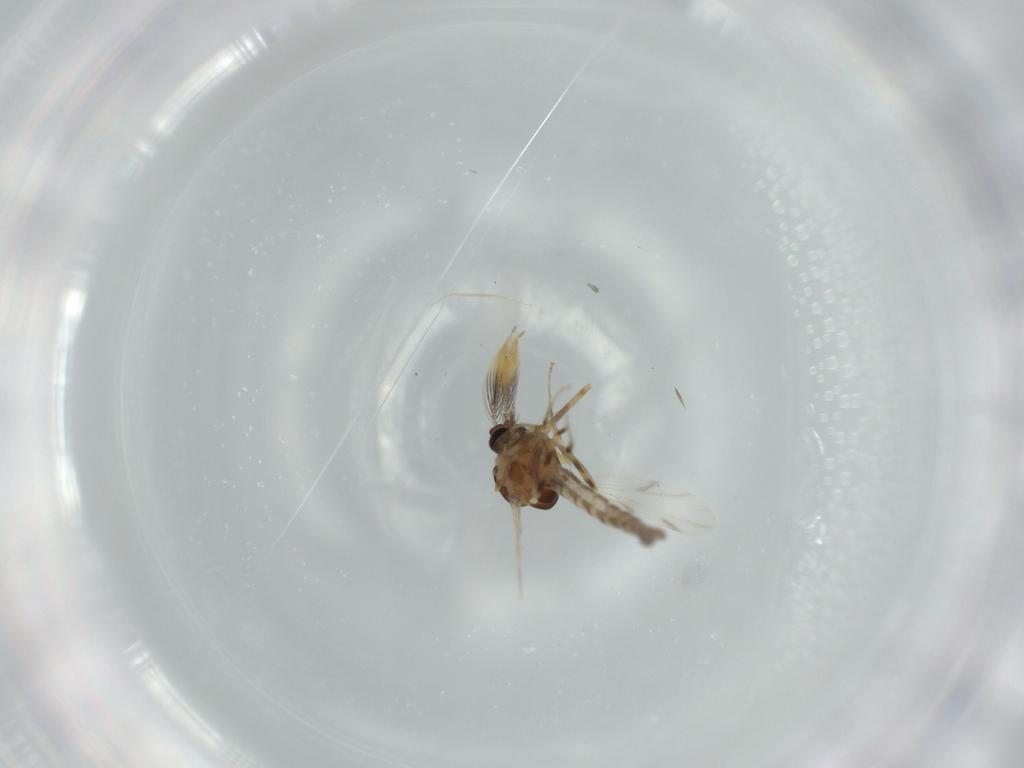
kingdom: Animalia
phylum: Arthropoda
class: Insecta
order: Diptera
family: Ceratopogonidae
